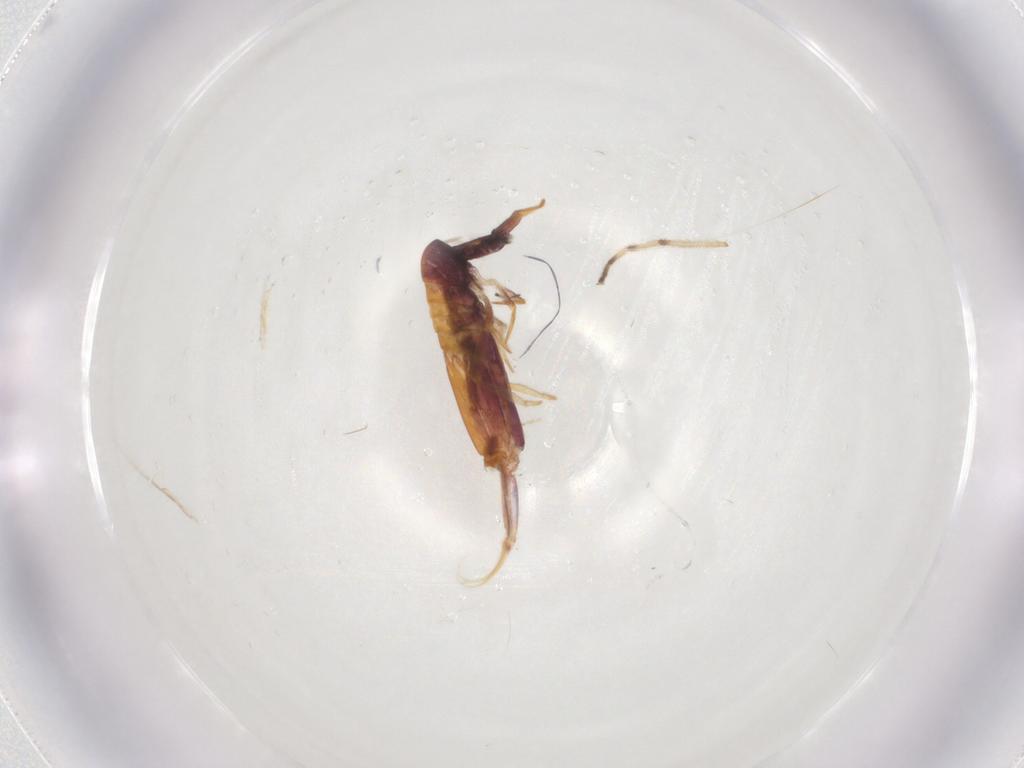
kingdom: Animalia
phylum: Arthropoda
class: Collembola
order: Entomobryomorpha
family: Entomobryidae
